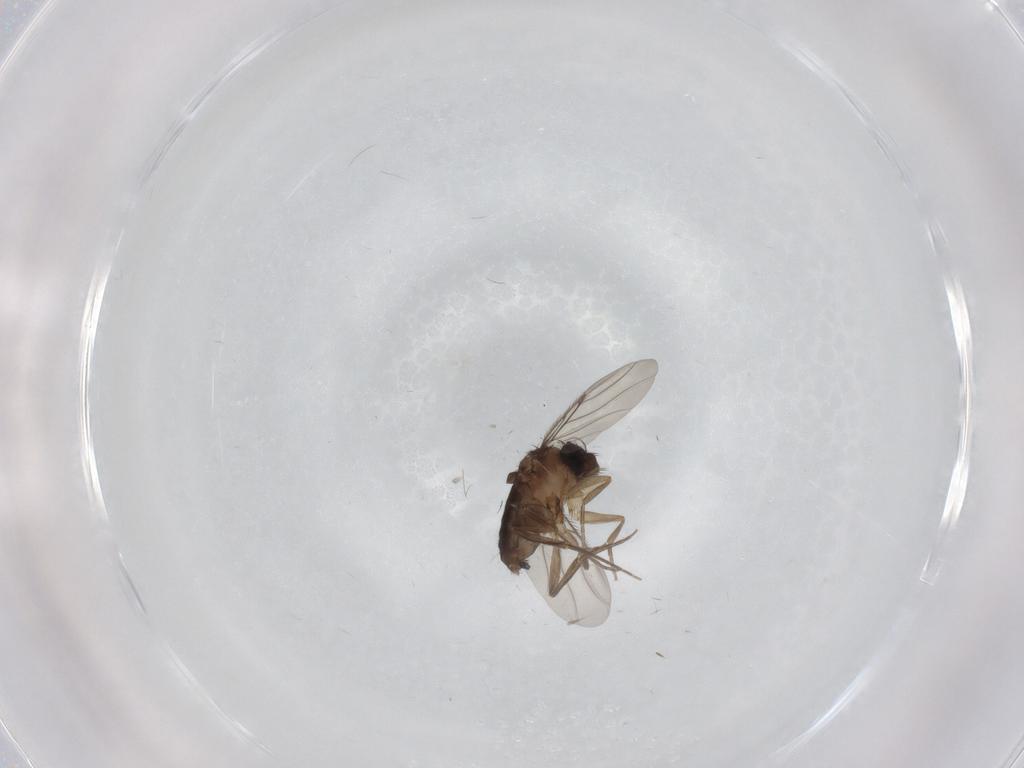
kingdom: Animalia
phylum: Arthropoda
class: Insecta
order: Diptera
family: Phoridae
